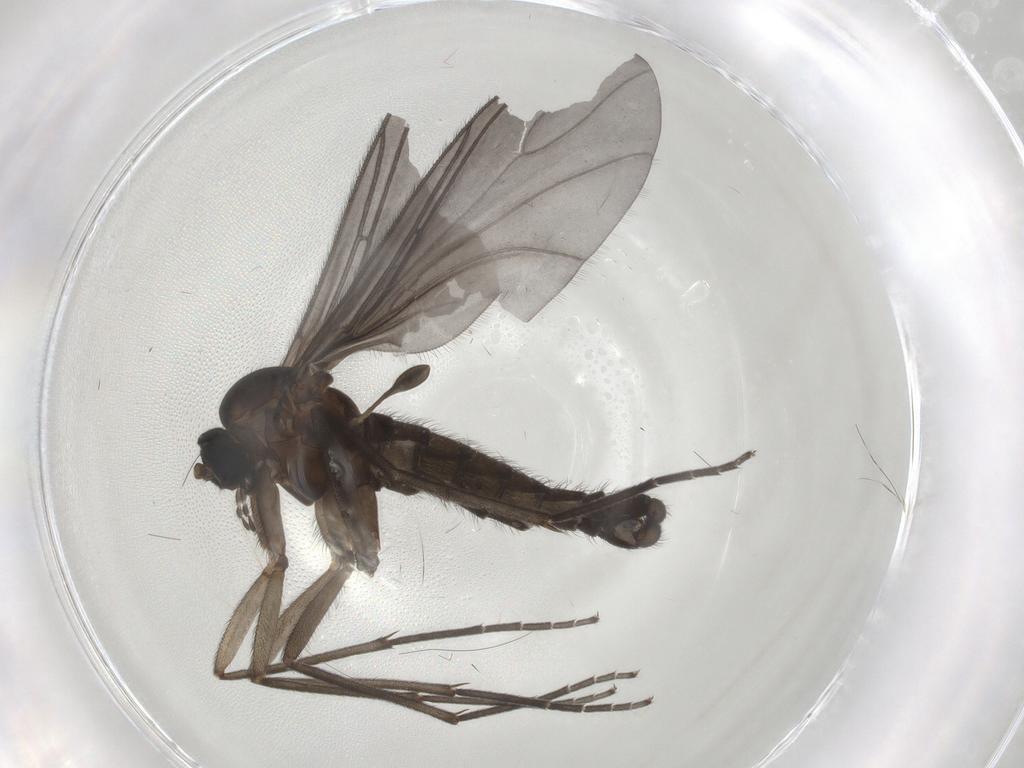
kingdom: Animalia
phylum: Arthropoda
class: Insecta
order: Diptera
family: Sciaridae
